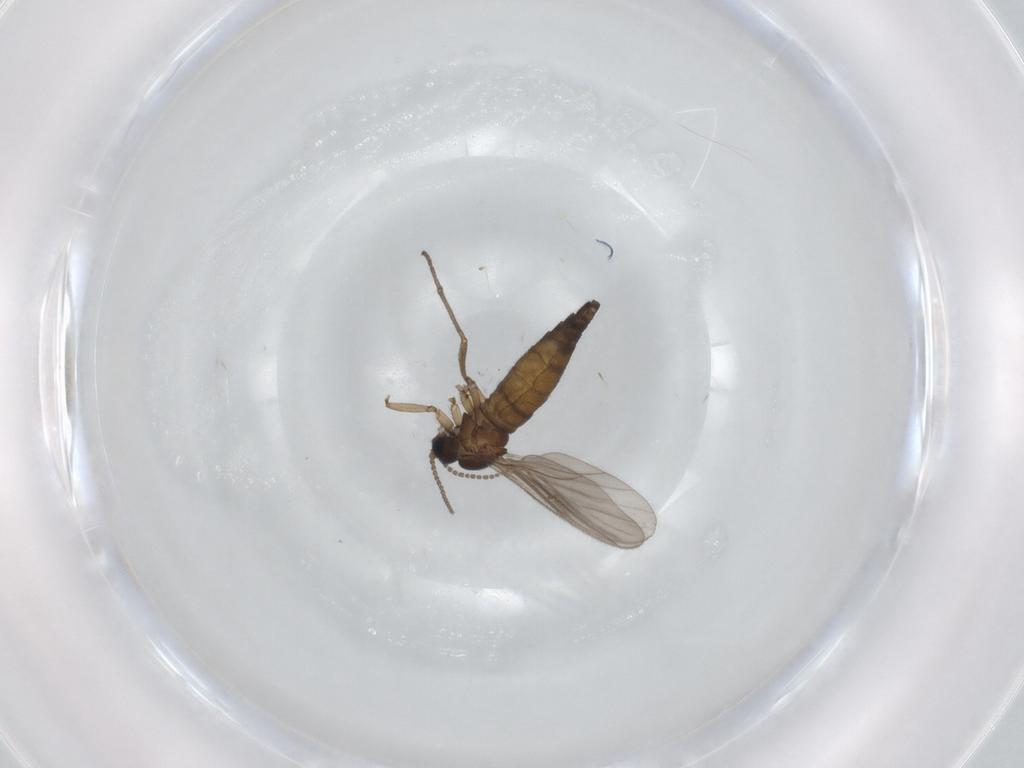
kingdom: Animalia
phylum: Arthropoda
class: Insecta
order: Diptera
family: Sciaridae
